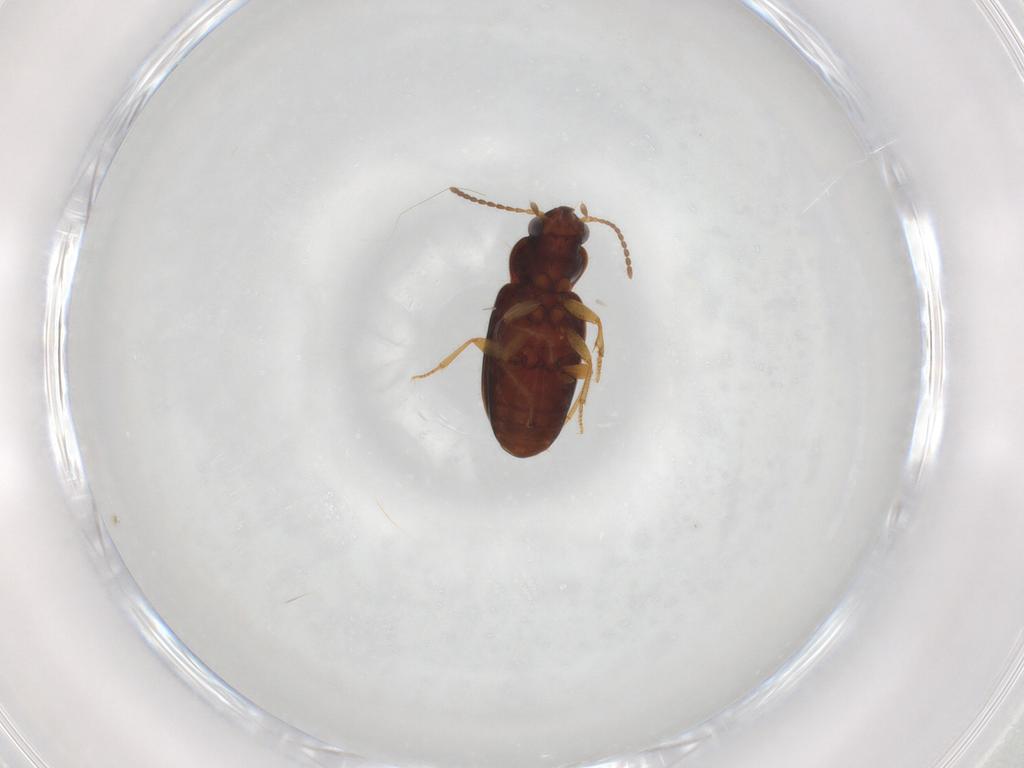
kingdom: Animalia
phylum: Arthropoda
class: Insecta
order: Coleoptera
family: Carabidae
